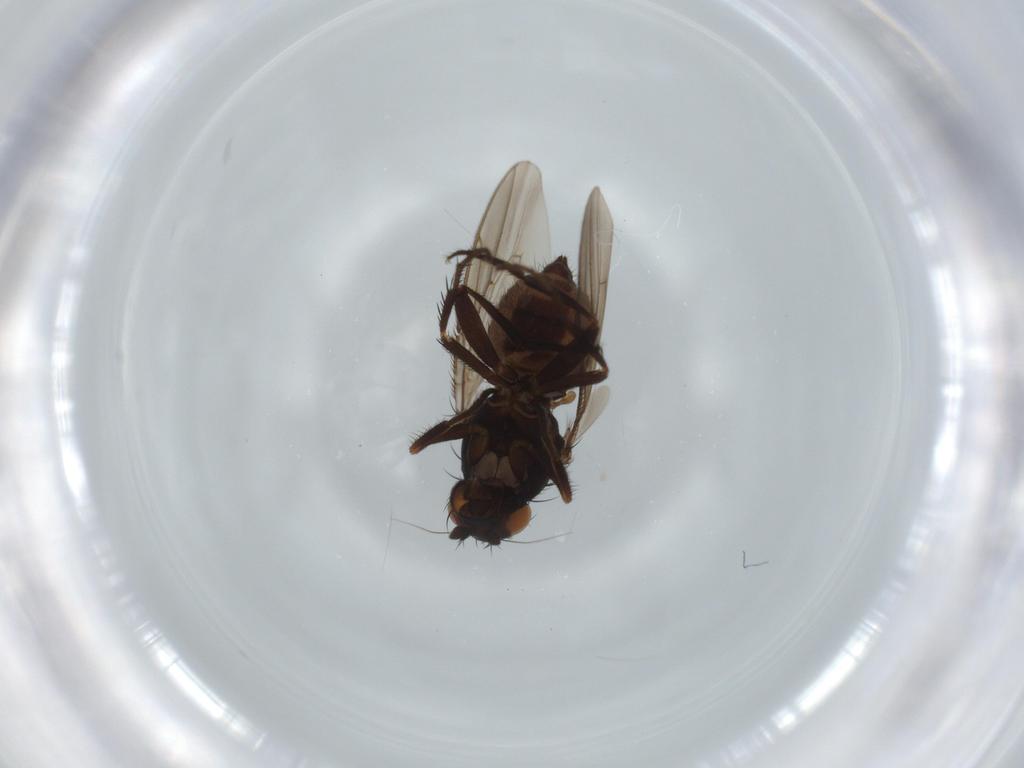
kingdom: Animalia
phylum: Arthropoda
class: Insecta
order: Diptera
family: Sphaeroceridae
